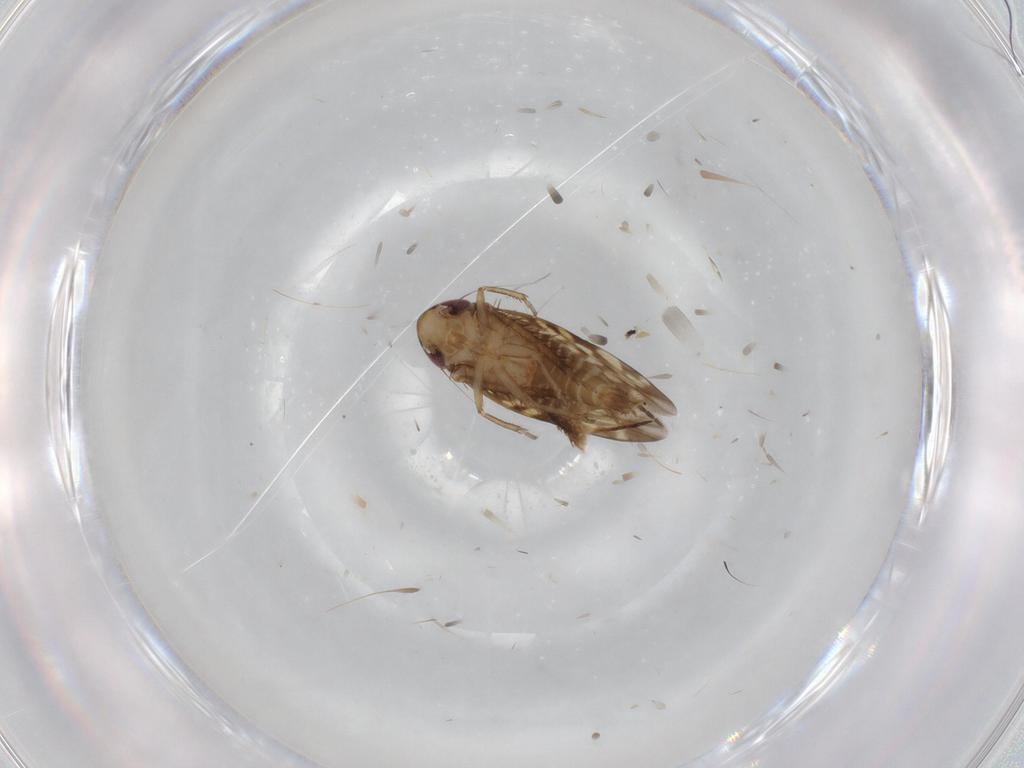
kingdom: Animalia
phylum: Arthropoda
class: Insecta
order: Hemiptera
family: Cicadellidae
